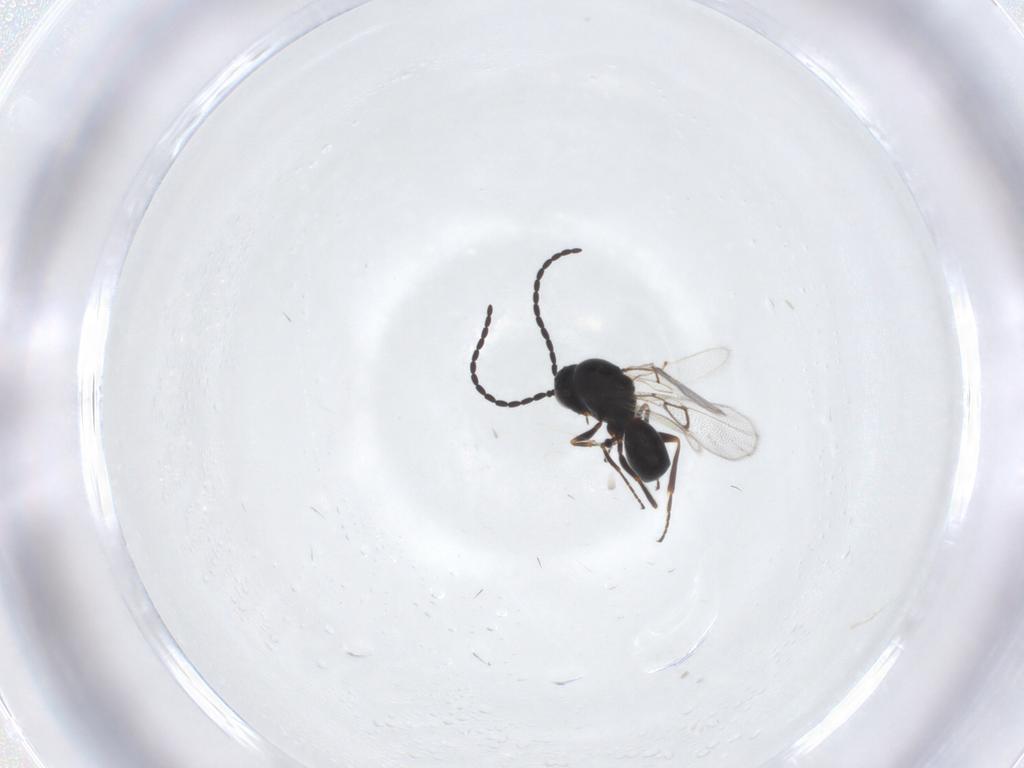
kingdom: Animalia
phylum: Arthropoda
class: Insecta
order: Hymenoptera
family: Figitidae
